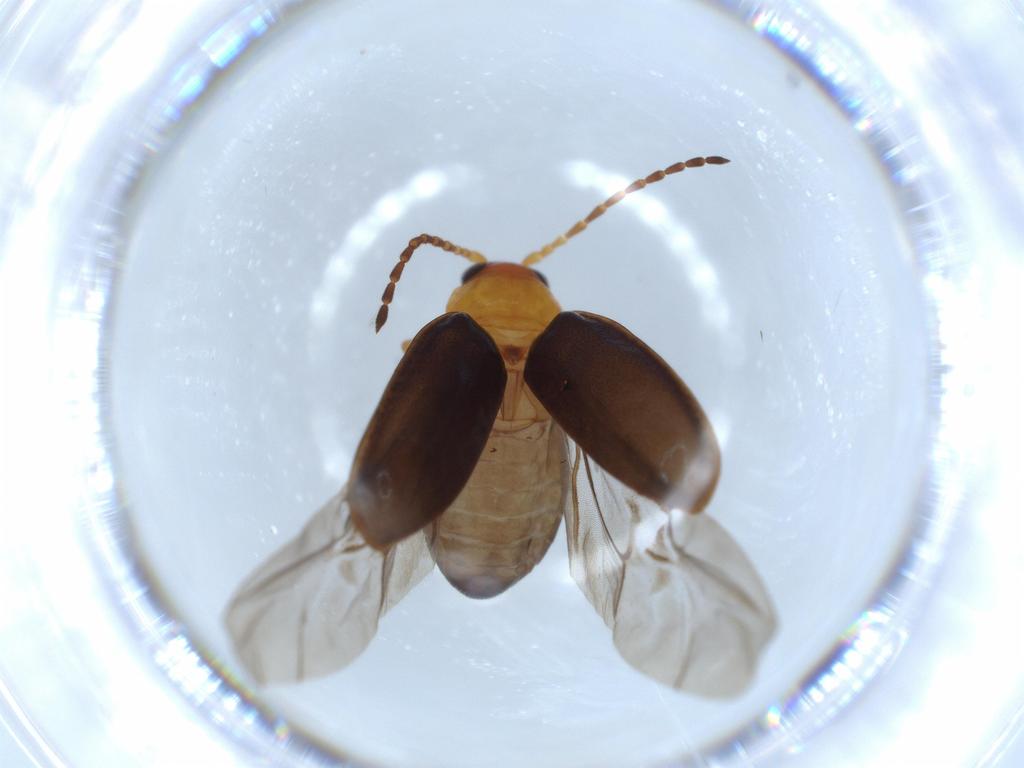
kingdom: Animalia
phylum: Arthropoda
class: Insecta
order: Coleoptera
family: Chrysomelidae
